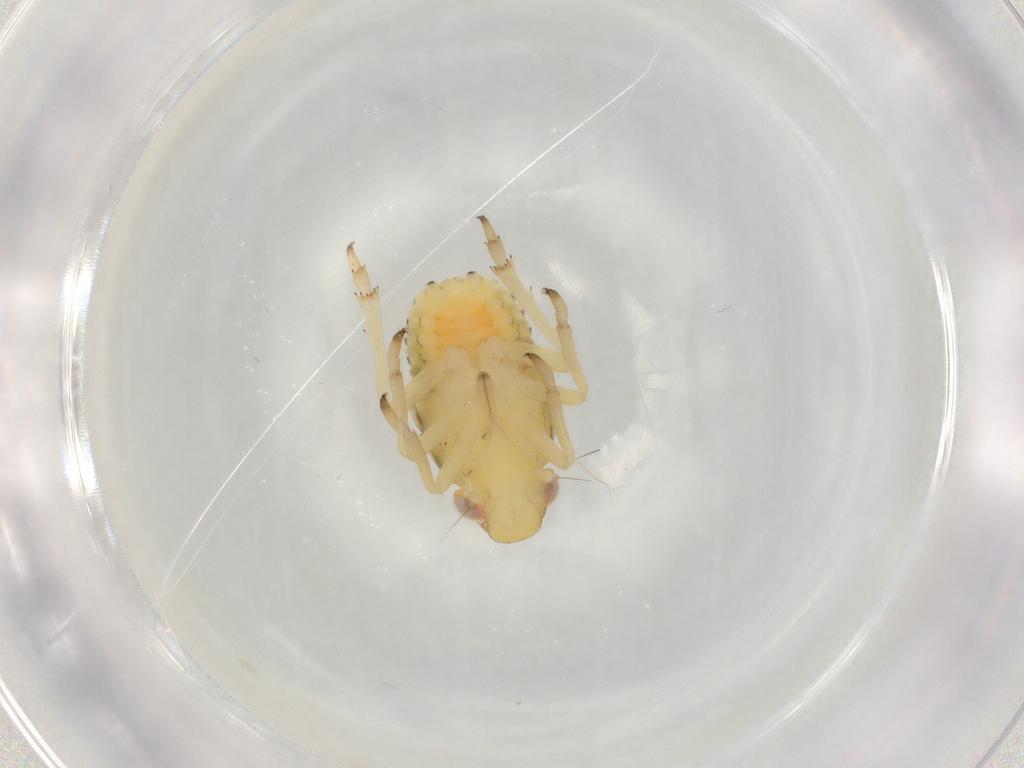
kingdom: Animalia
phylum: Arthropoda
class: Insecta
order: Hemiptera
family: Caliscelidae
